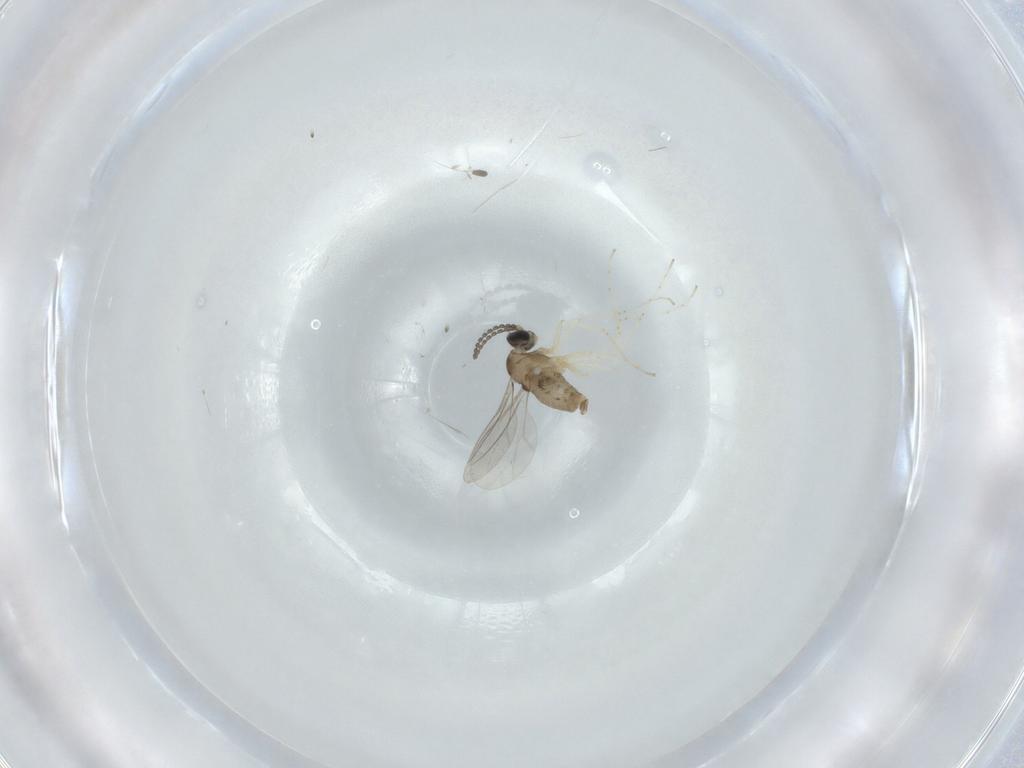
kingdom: Animalia
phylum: Arthropoda
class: Insecta
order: Diptera
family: Cecidomyiidae
